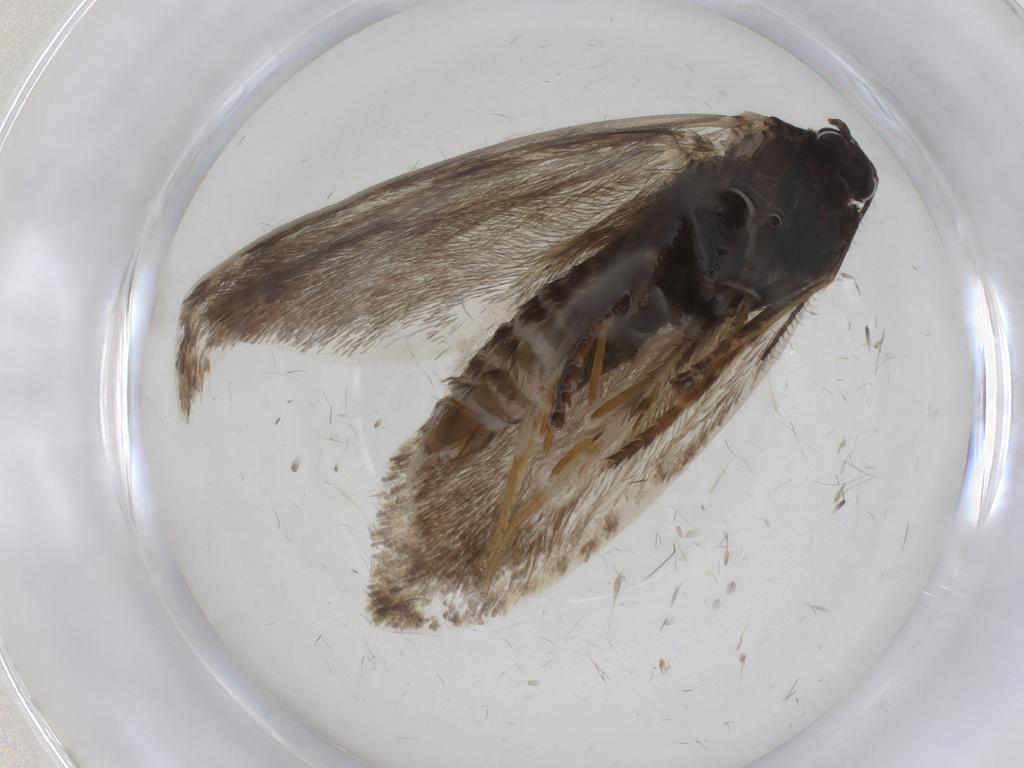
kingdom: Animalia
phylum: Arthropoda
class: Insecta
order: Lepidoptera
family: Psychidae
